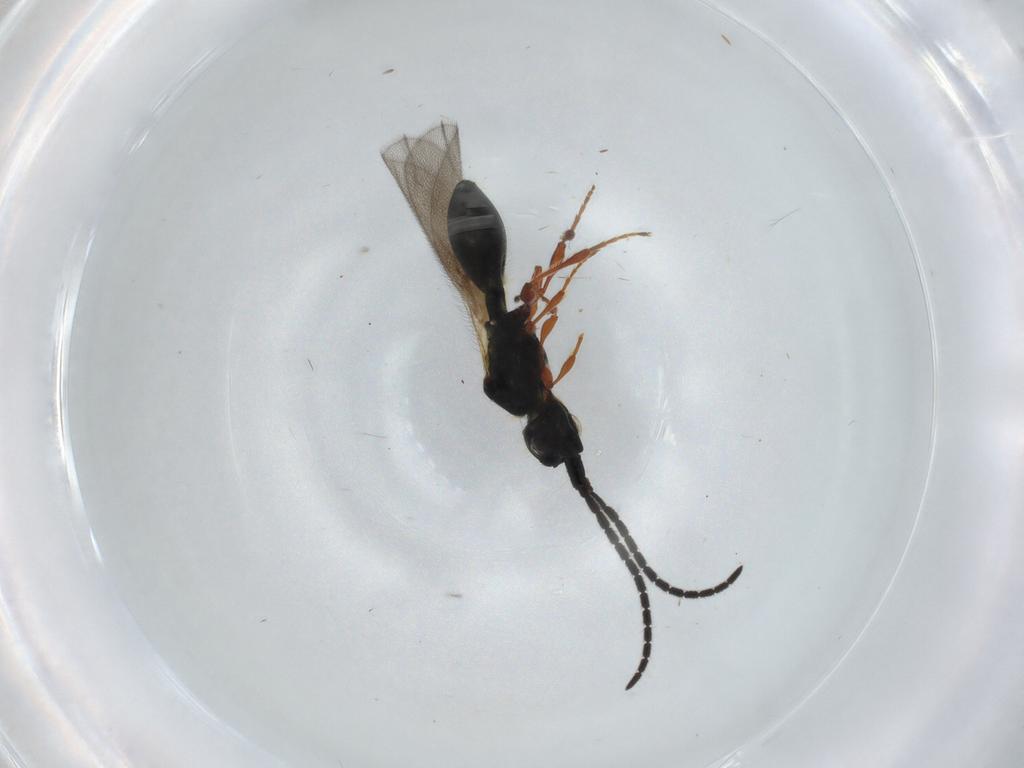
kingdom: Animalia
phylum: Arthropoda
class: Insecta
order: Hymenoptera
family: Diapriidae
